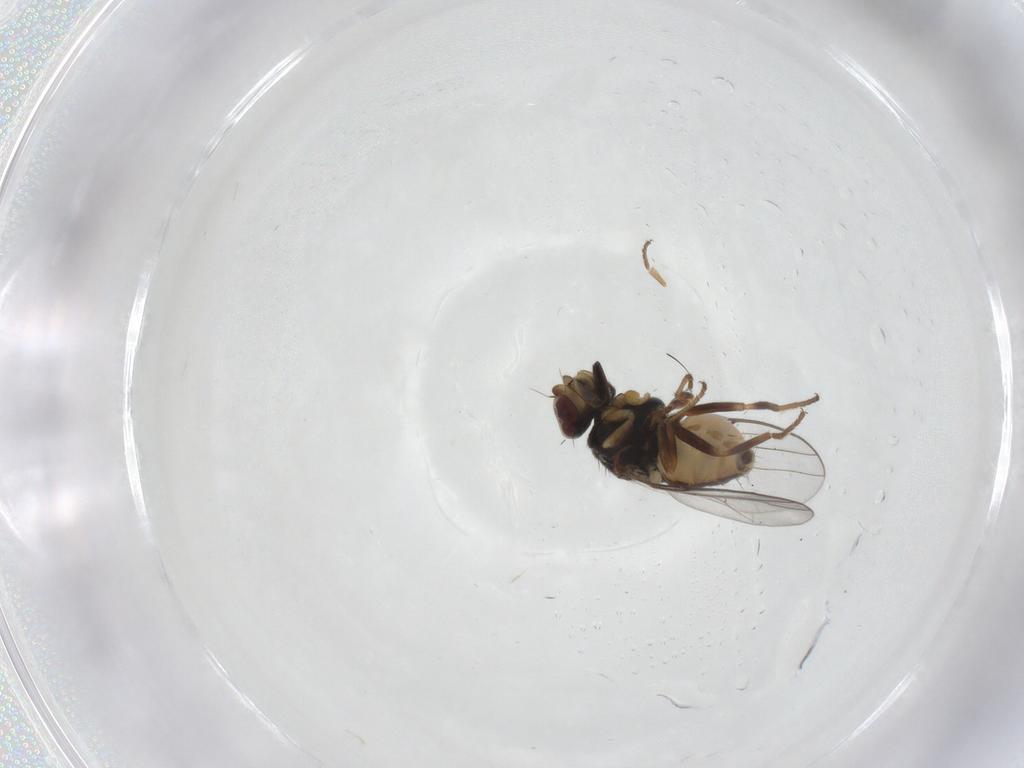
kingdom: Animalia
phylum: Arthropoda
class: Insecta
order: Diptera
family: Chloropidae
